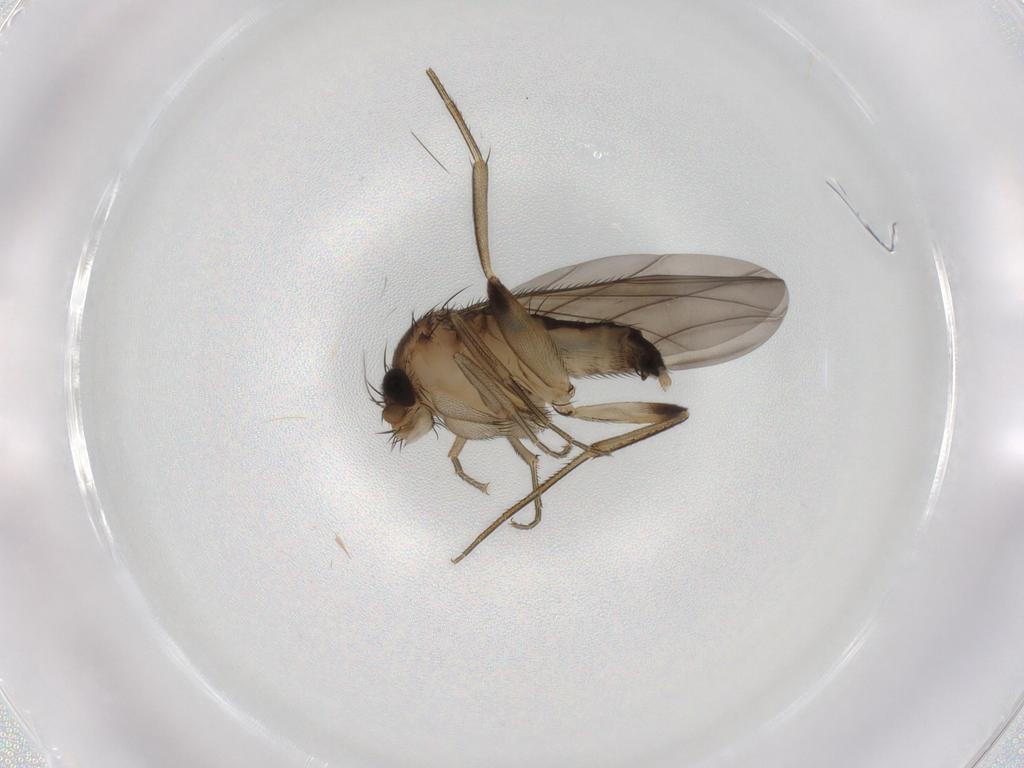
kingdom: Animalia
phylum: Arthropoda
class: Insecta
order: Diptera
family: Phoridae
